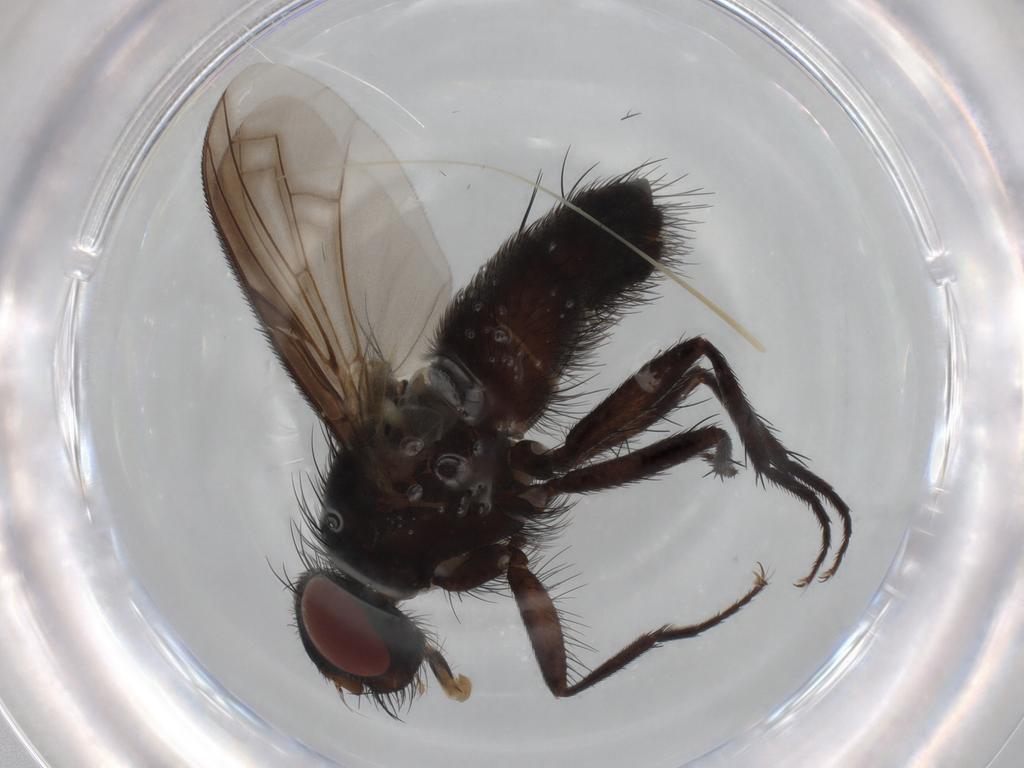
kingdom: Animalia
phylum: Arthropoda
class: Insecta
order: Diptera
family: Tachinidae
